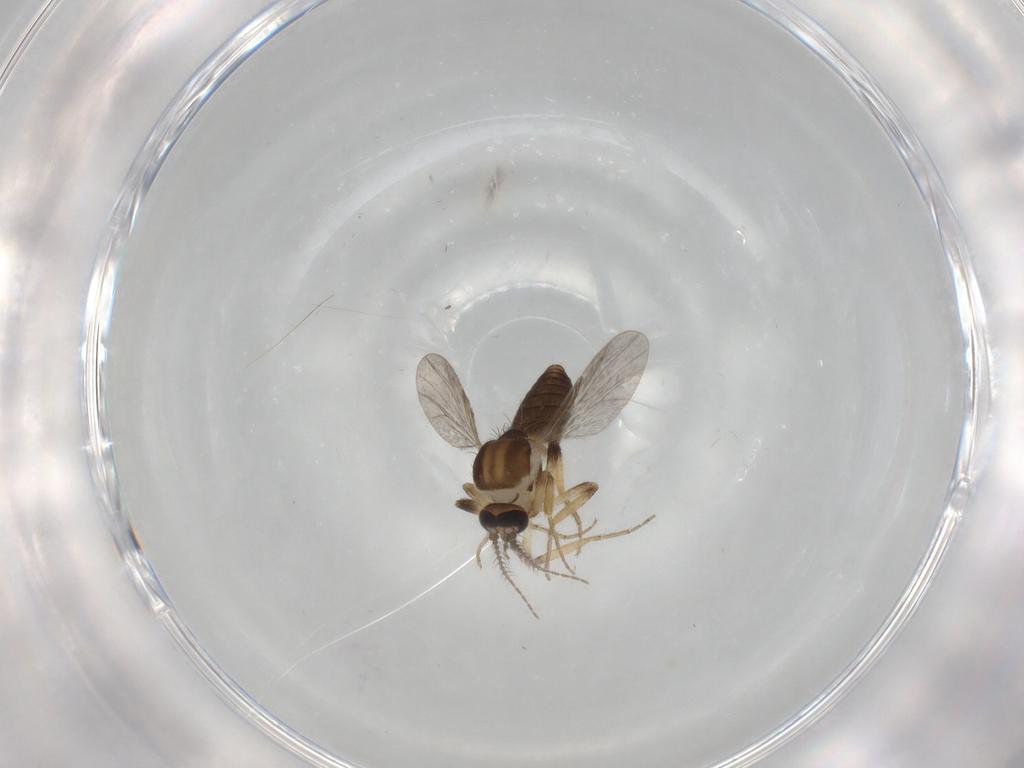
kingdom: Animalia
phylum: Arthropoda
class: Insecta
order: Diptera
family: Ceratopogonidae
